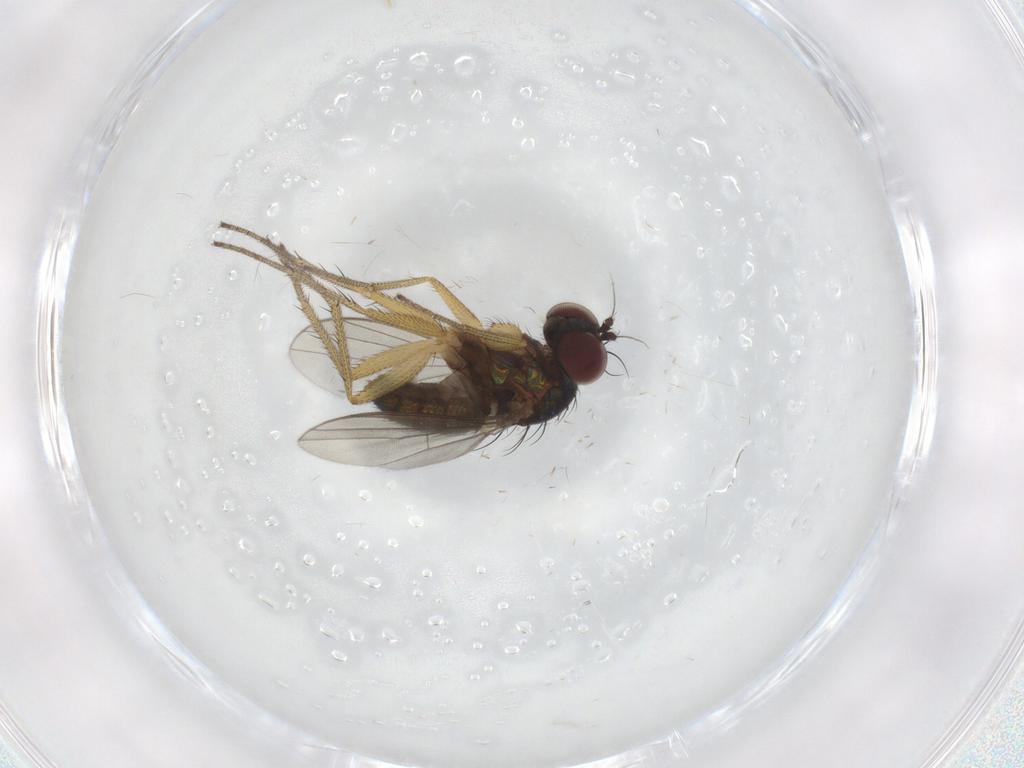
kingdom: Animalia
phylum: Arthropoda
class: Insecta
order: Diptera
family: Dolichopodidae
